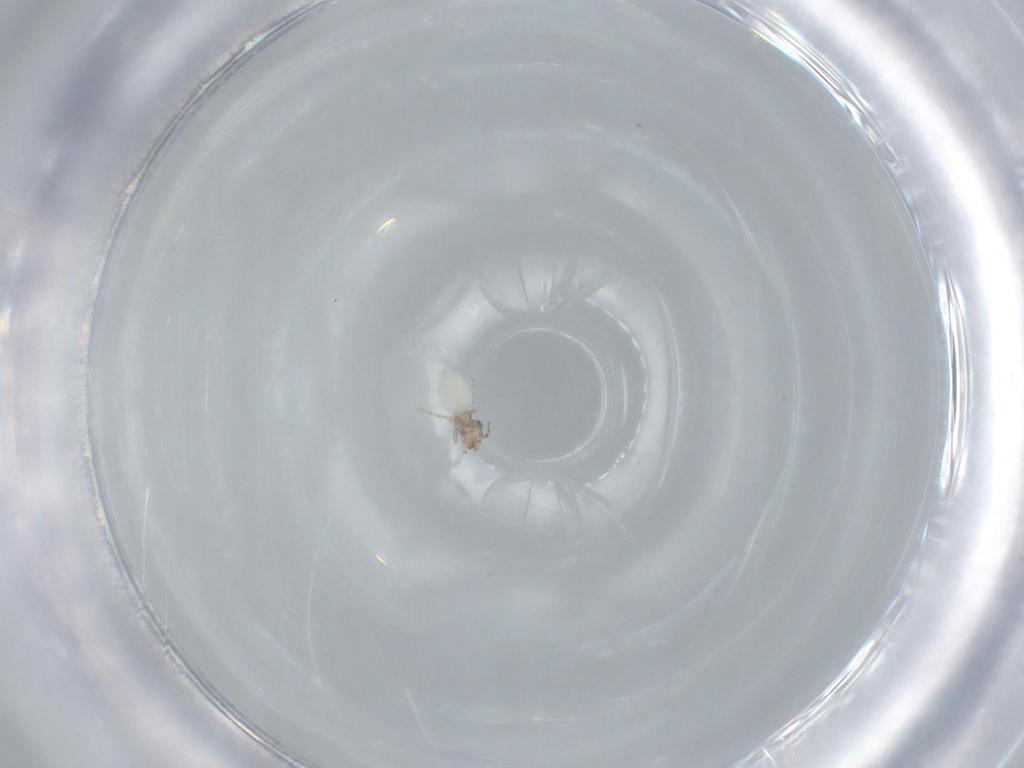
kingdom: Animalia
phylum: Arthropoda
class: Insecta
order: Psocodea
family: Lepidopsocidae
